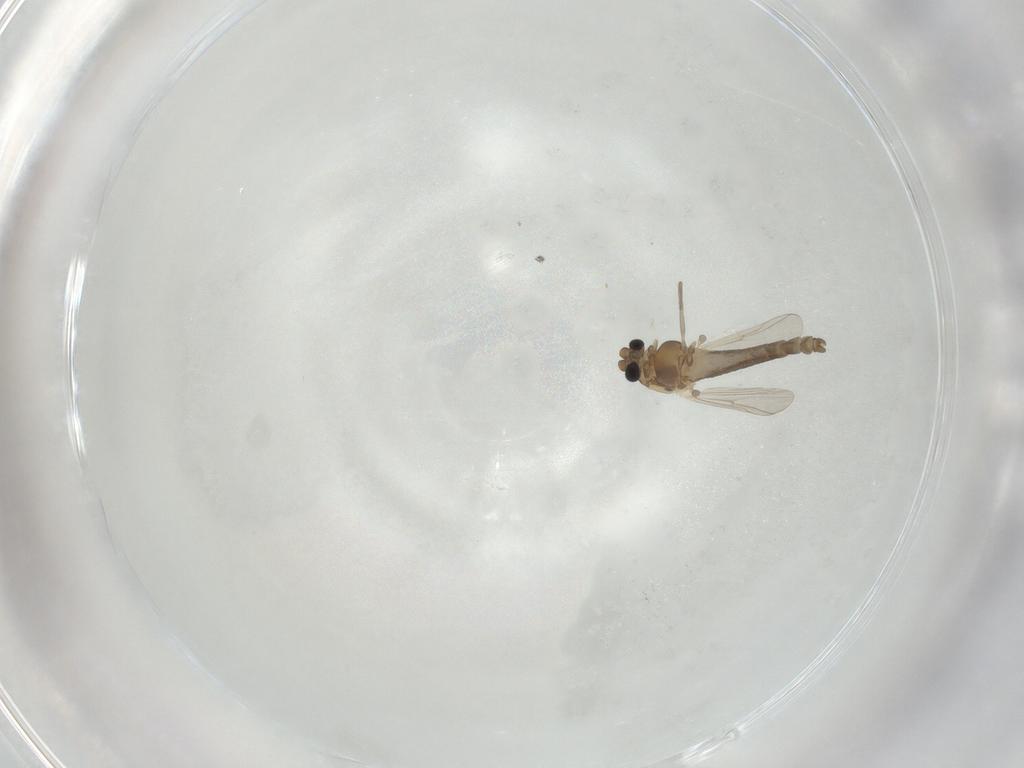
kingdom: Animalia
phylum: Arthropoda
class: Insecta
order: Diptera
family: Chironomidae
